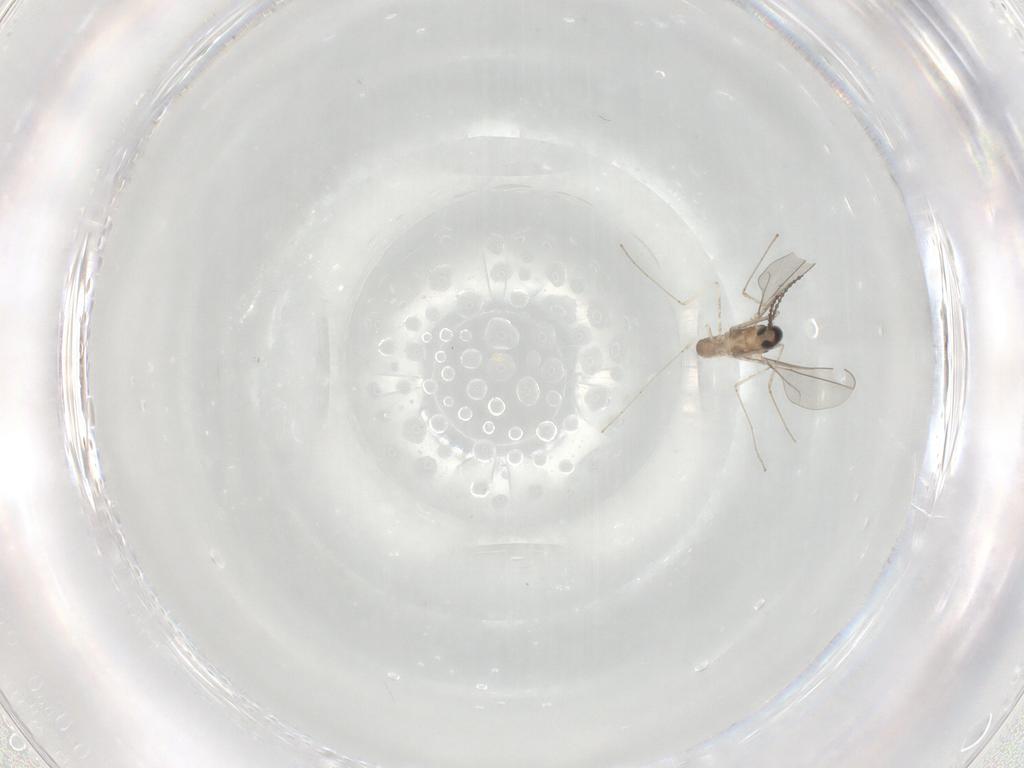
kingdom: Animalia
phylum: Arthropoda
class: Insecta
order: Diptera
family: Cecidomyiidae
